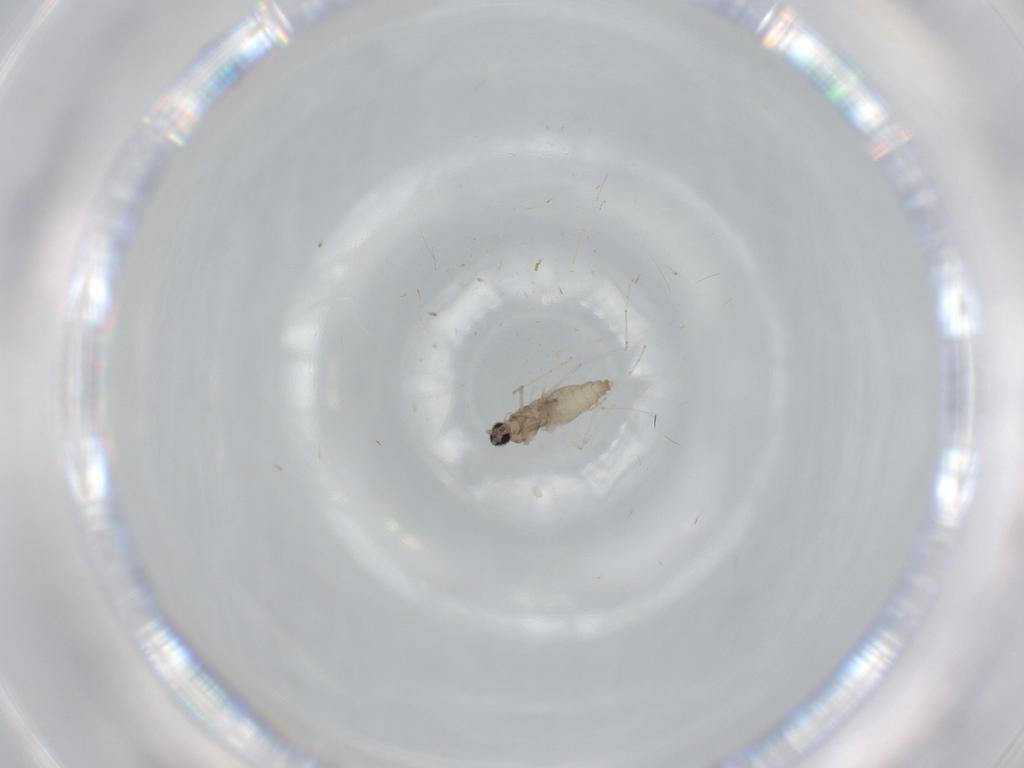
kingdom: Animalia
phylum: Arthropoda
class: Insecta
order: Diptera
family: Cecidomyiidae
